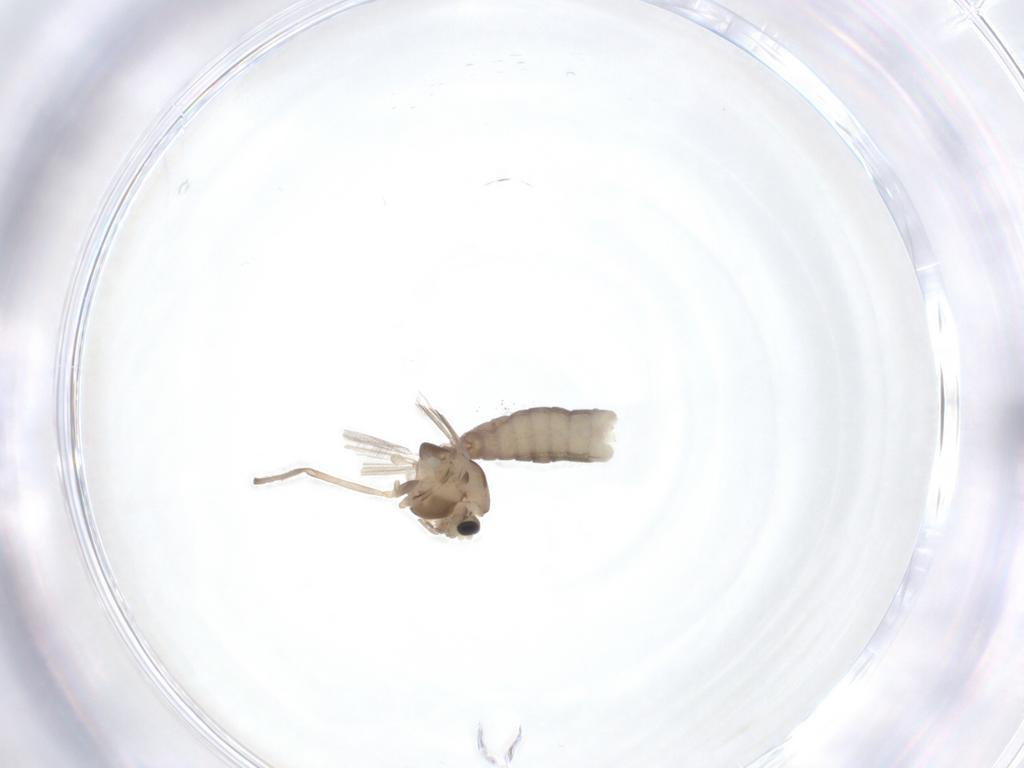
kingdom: Animalia
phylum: Arthropoda
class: Insecta
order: Diptera
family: Chironomidae
